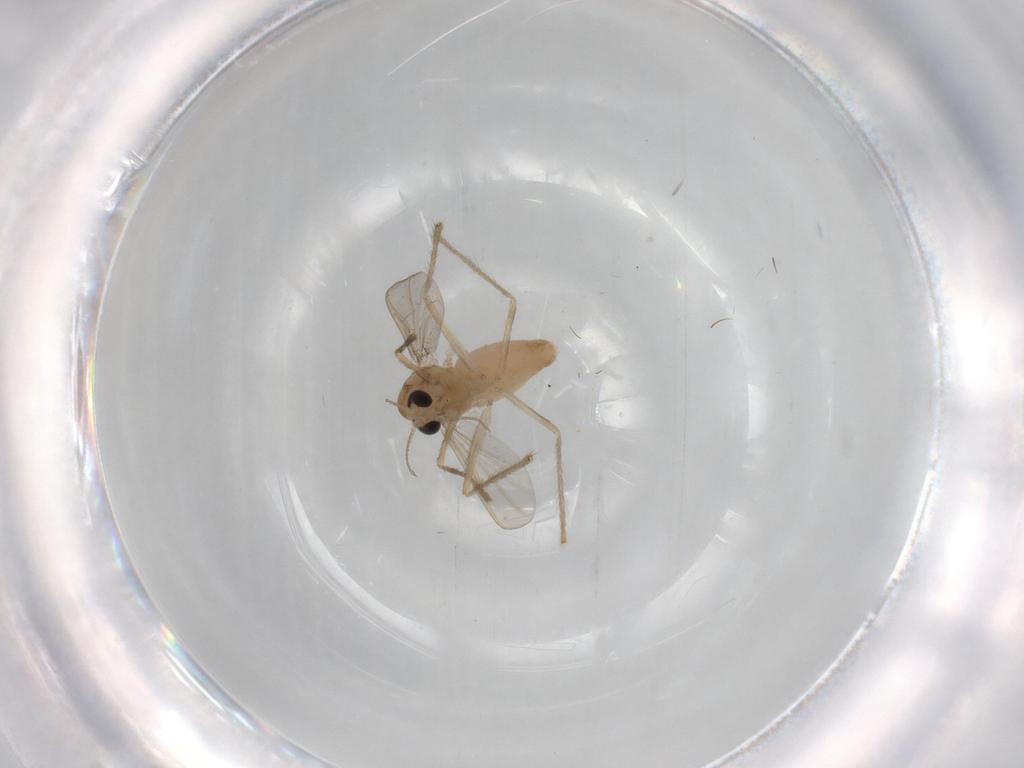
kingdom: Animalia
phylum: Arthropoda
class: Insecta
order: Diptera
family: Chironomidae
